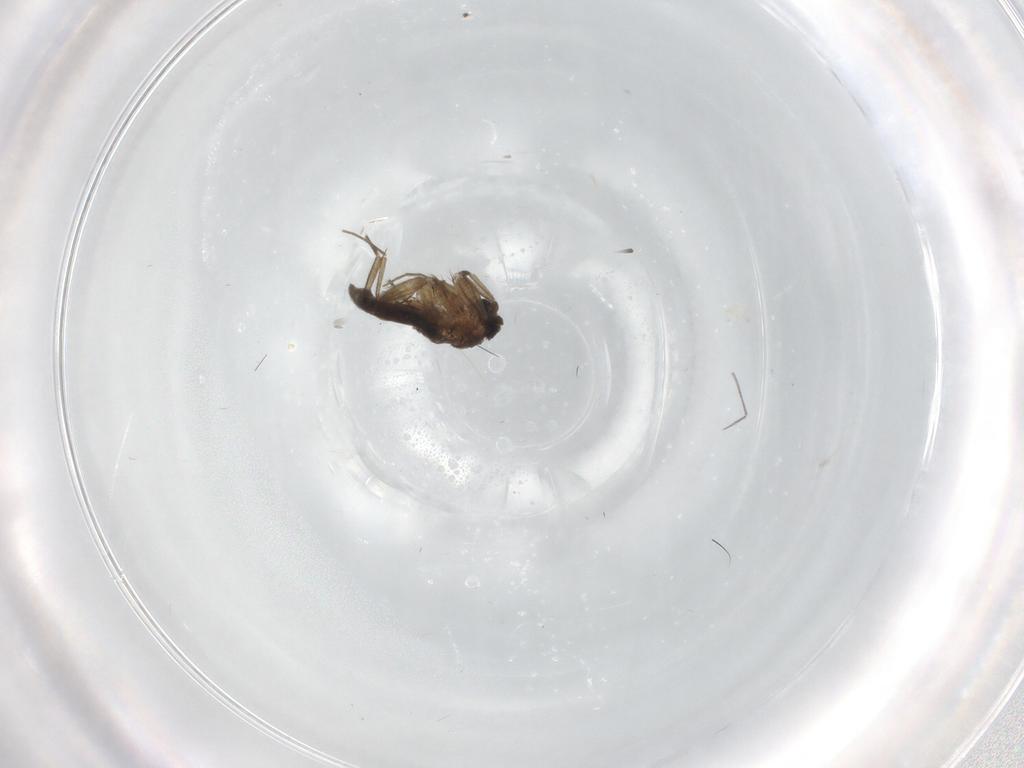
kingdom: Animalia
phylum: Arthropoda
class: Insecta
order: Diptera
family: Cecidomyiidae
